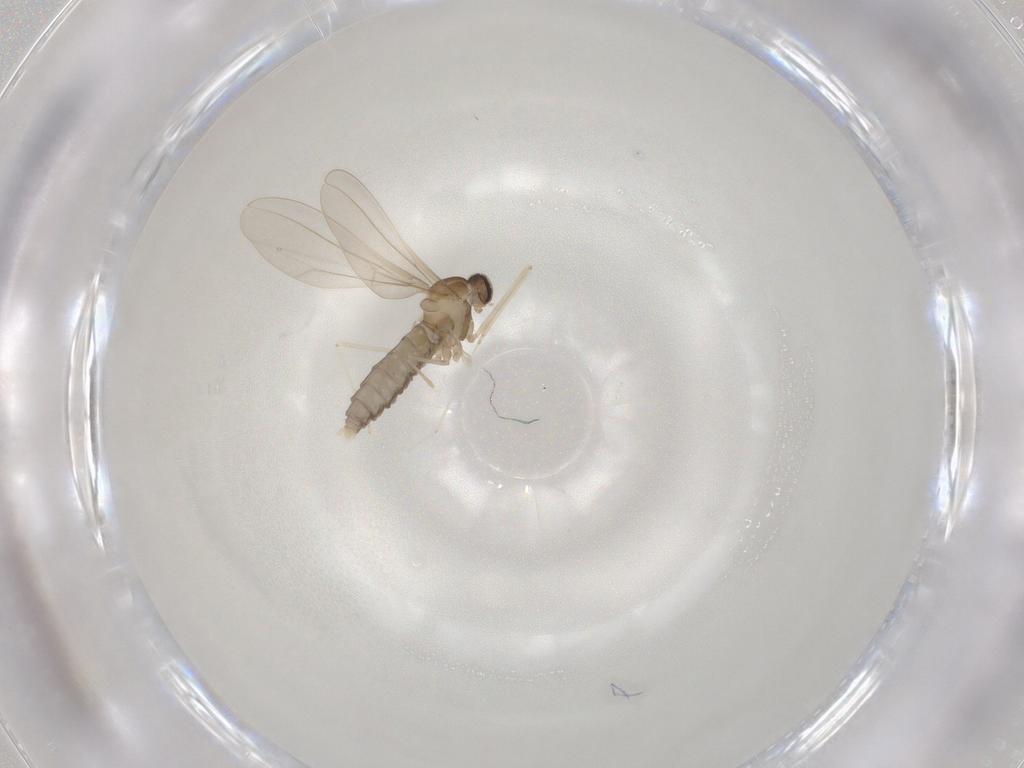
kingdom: Animalia
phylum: Arthropoda
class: Insecta
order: Diptera
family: Cecidomyiidae
